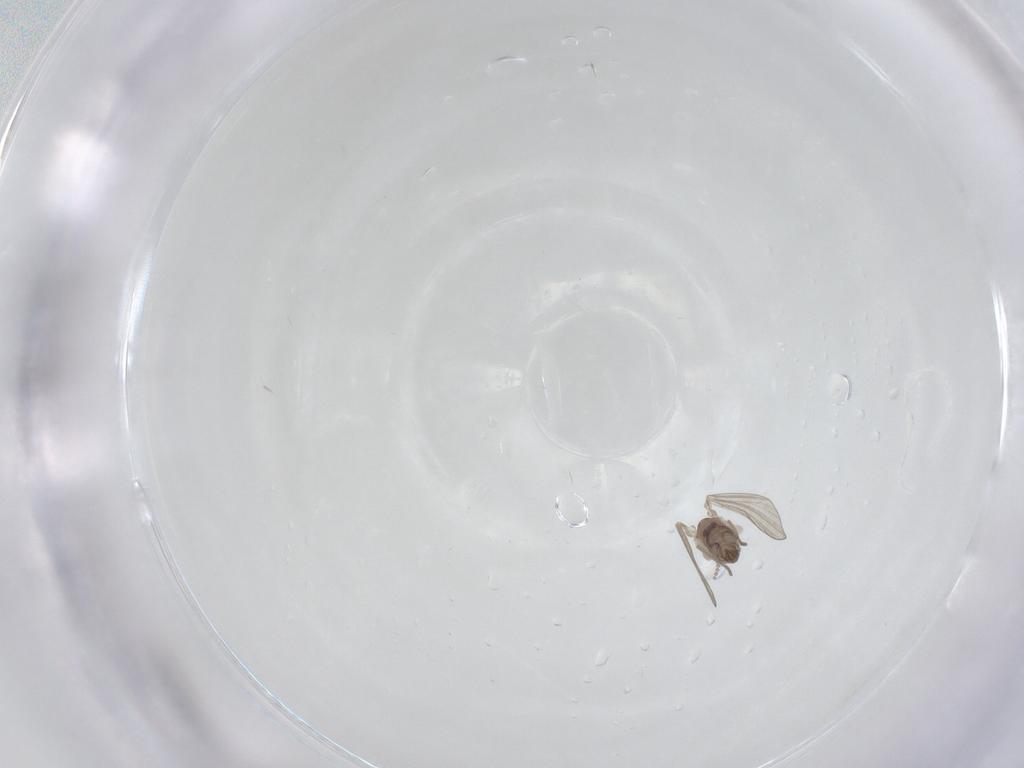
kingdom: Animalia
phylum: Arthropoda
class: Insecta
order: Diptera
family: Psychodidae
